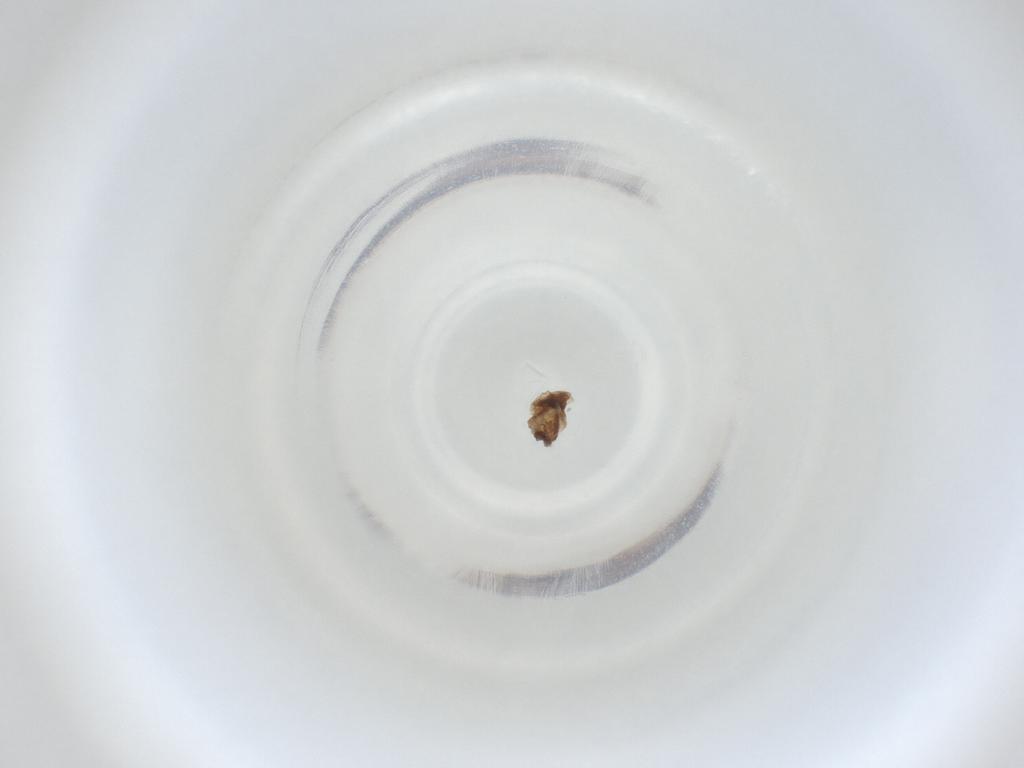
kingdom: Animalia
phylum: Arthropoda
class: Insecta
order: Diptera
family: Cecidomyiidae
